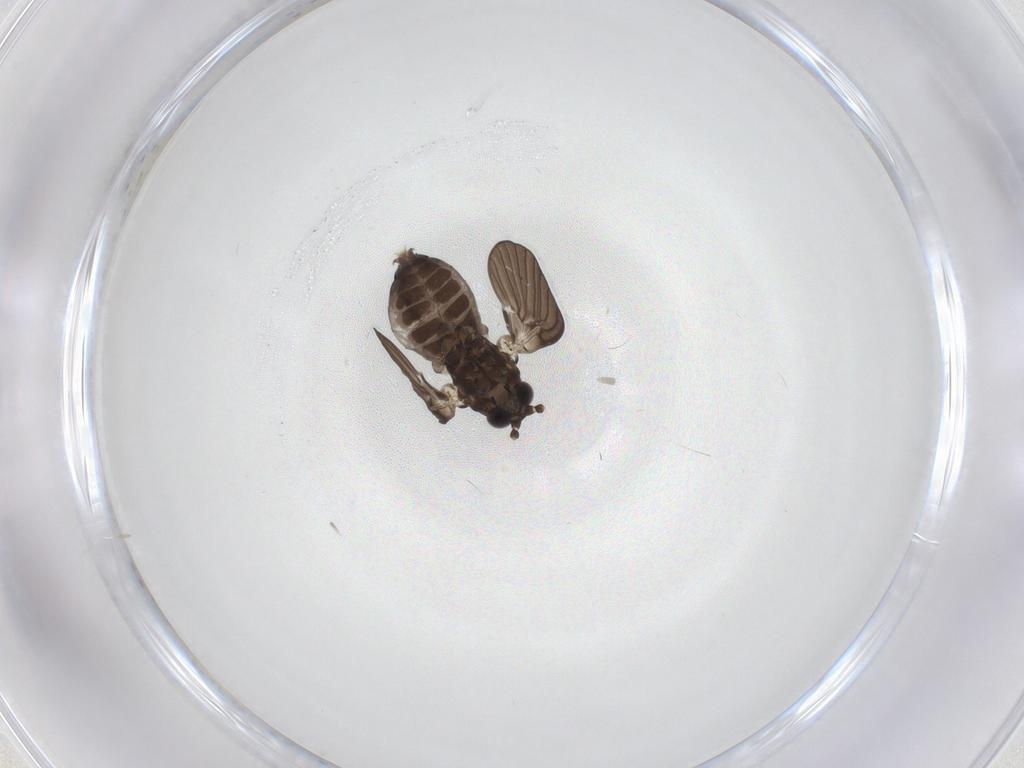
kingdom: Animalia
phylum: Arthropoda
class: Insecta
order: Diptera
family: Psychodidae
